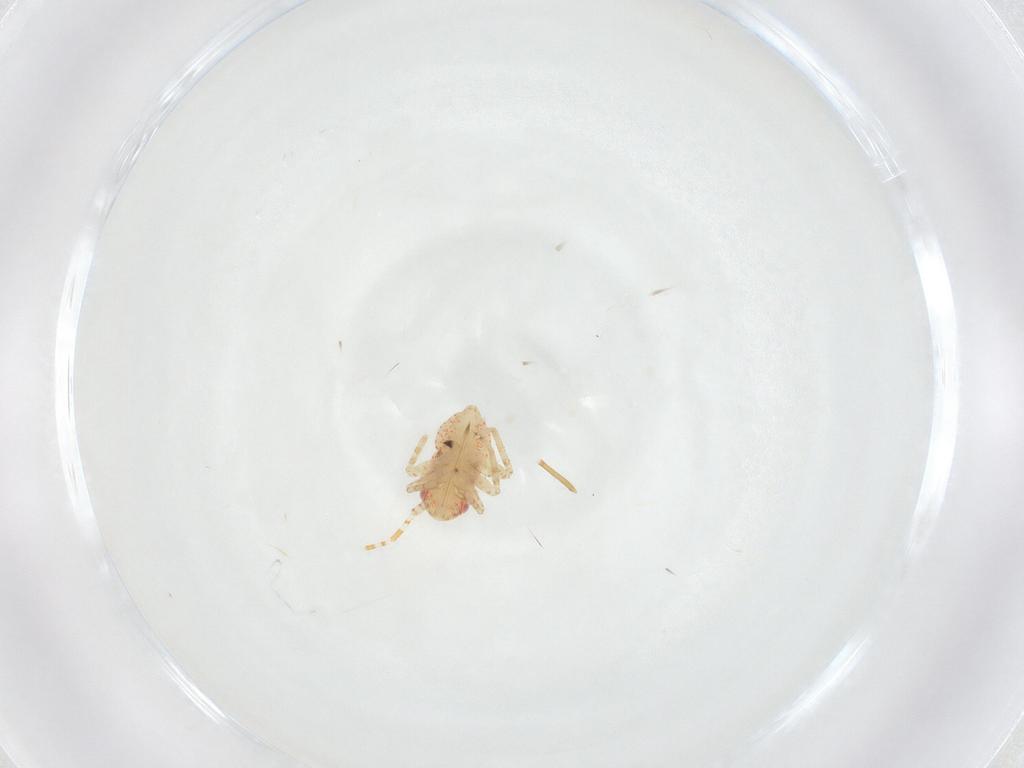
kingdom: Animalia
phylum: Arthropoda
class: Insecta
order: Hemiptera
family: Miridae
